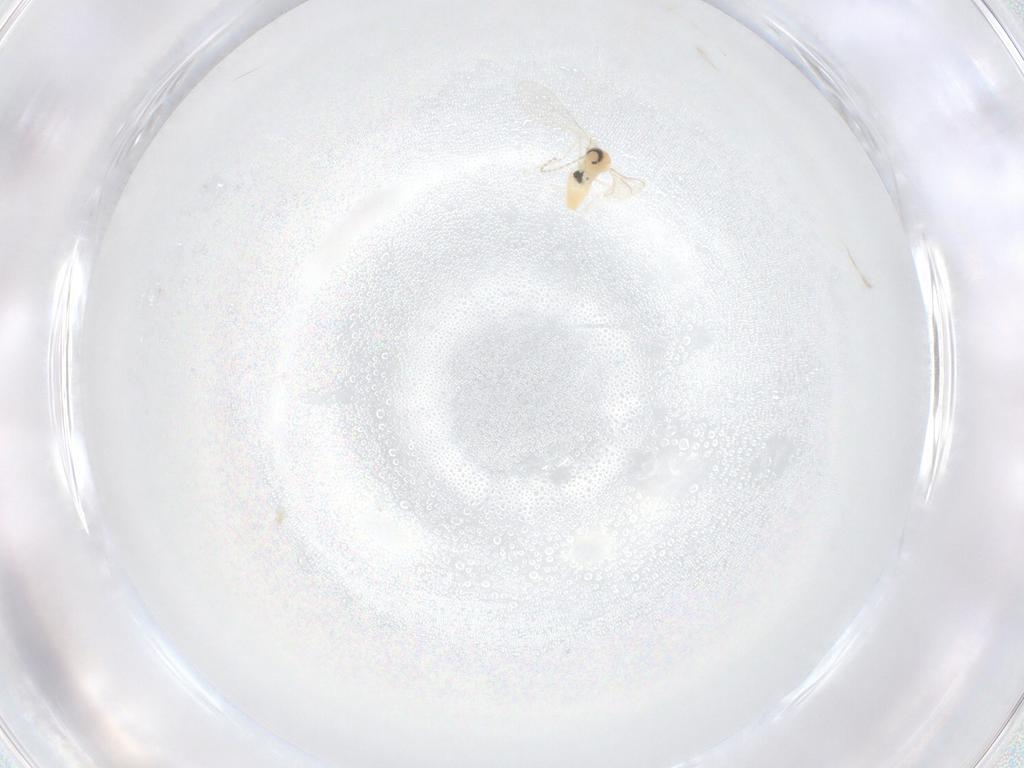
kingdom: Animalia
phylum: Arthropoda
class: Insecta
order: Diptera
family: Cecidomyiidae
